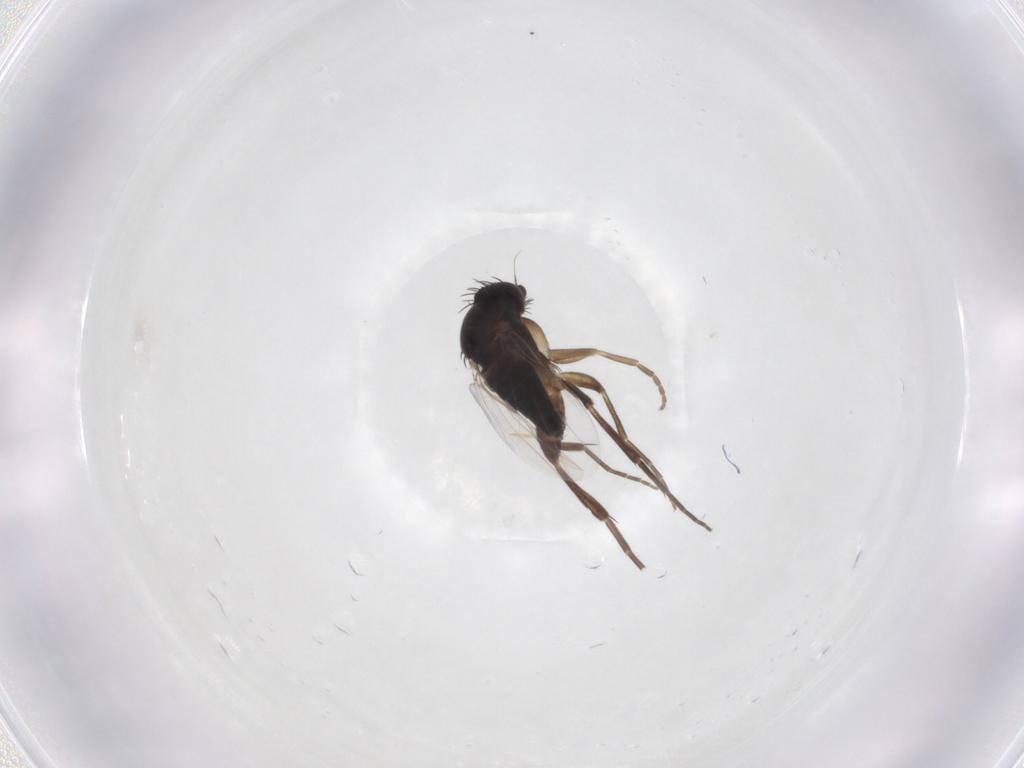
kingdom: Animalia
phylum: Arthropoda
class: Insecta
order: Diptera
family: Phoridae
